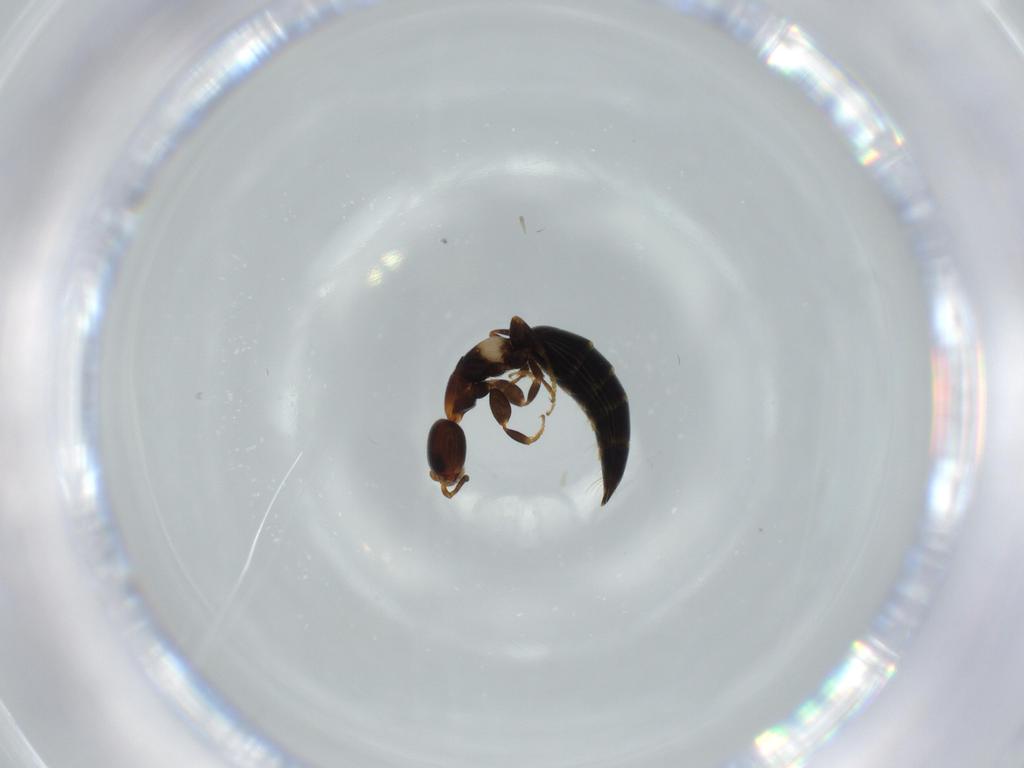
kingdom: Animalia
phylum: Arthropoda
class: Insecta
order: Hymenoptera
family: Bethylidae
